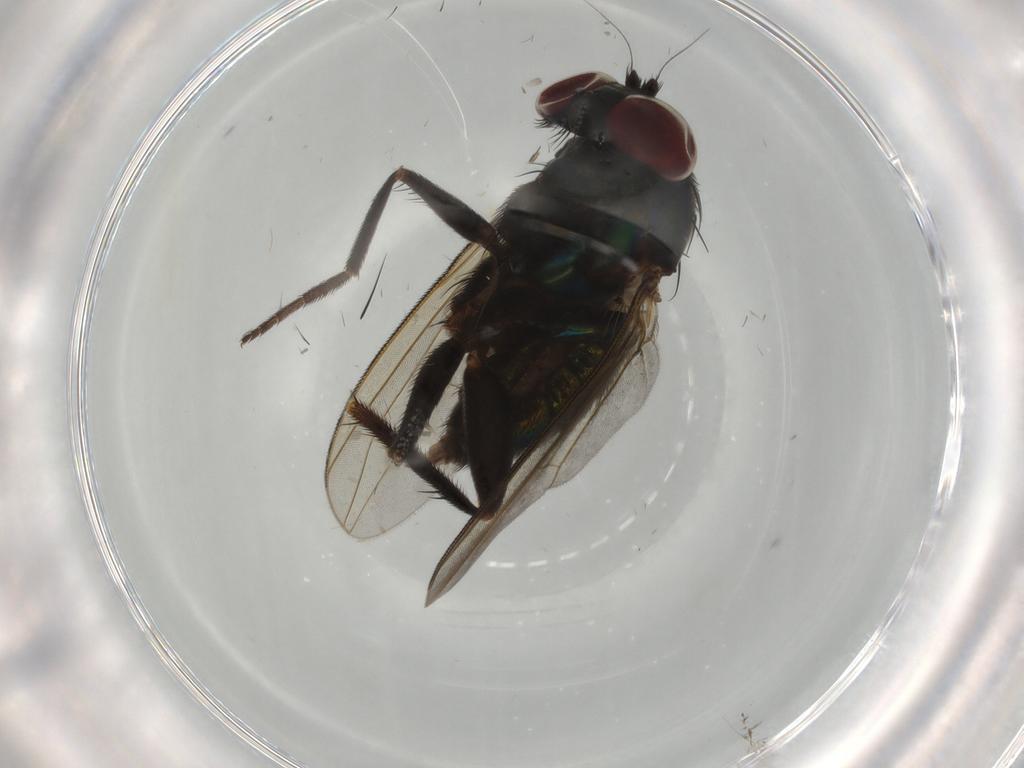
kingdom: Animalia
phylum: Arthropoda
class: Insecta
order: Diptera
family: Dolichopodidae
